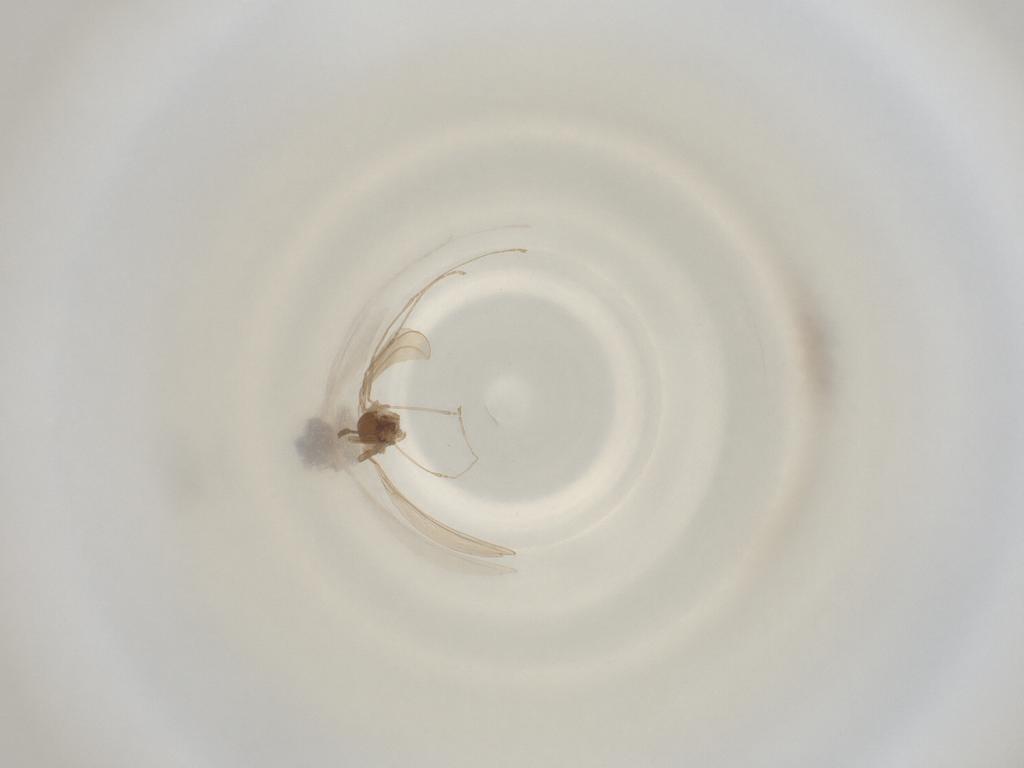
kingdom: Animalia
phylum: Arthropoda
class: Insecta
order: Diptera
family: Cecidomyiidae
